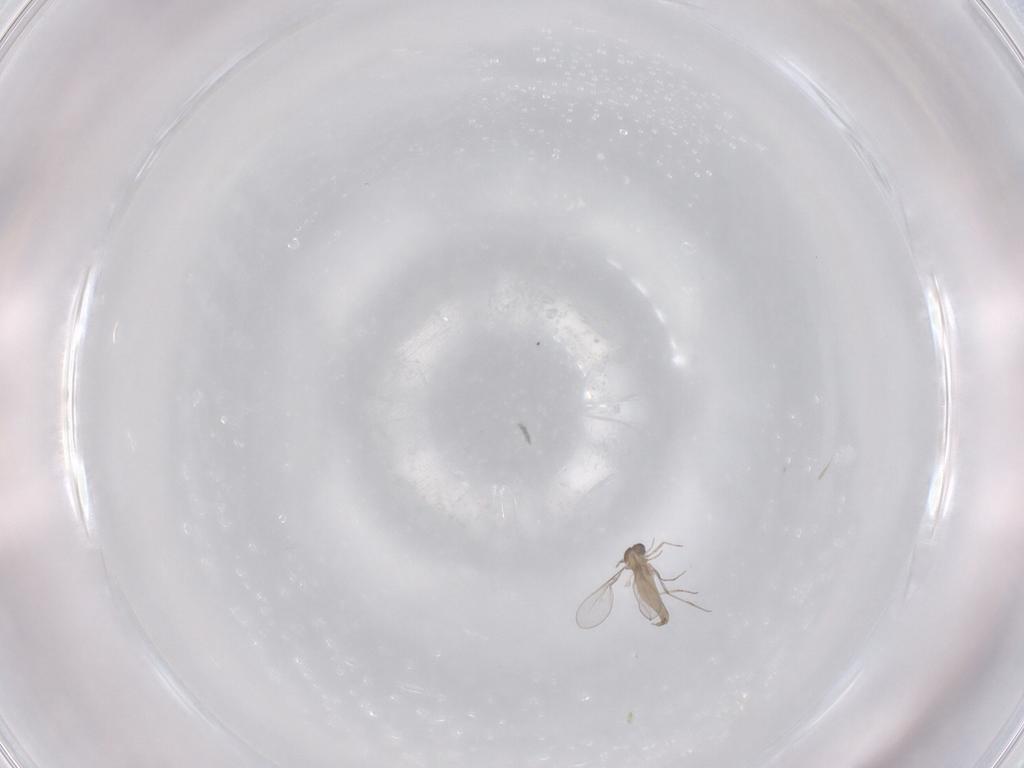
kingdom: Animalia
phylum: Arthropoda
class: Insecta
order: Diptera
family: Cecidomyiidae
